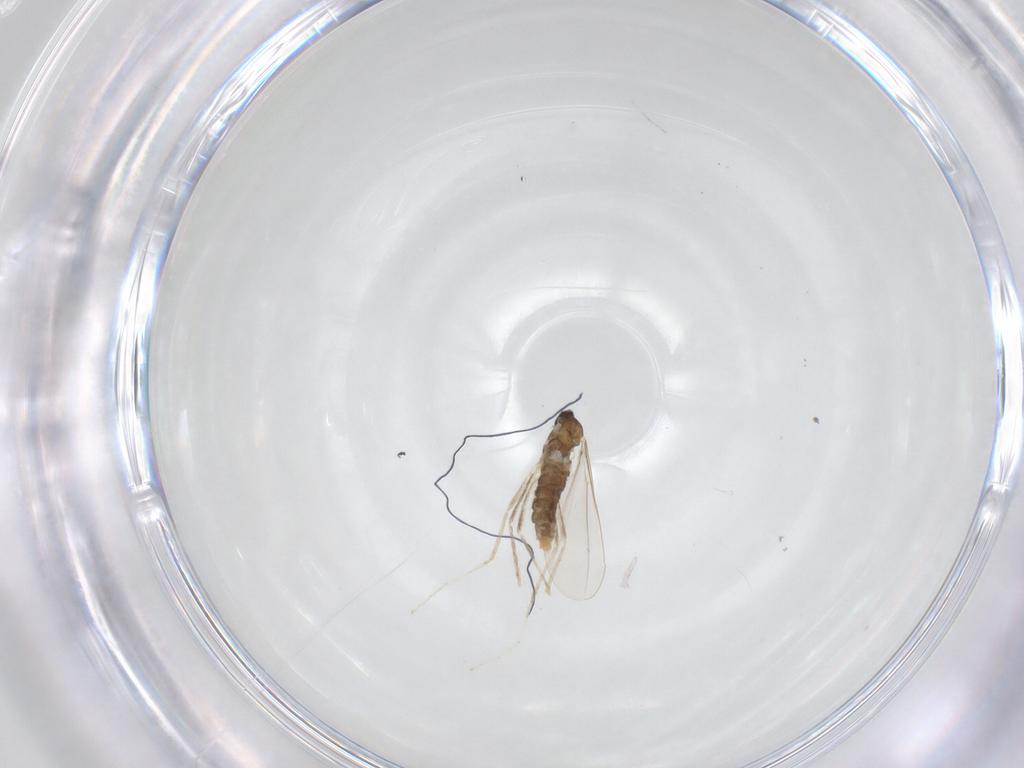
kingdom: Animalia
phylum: Arthropoda
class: Insecta
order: Diptera
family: Cecidomyiidae
